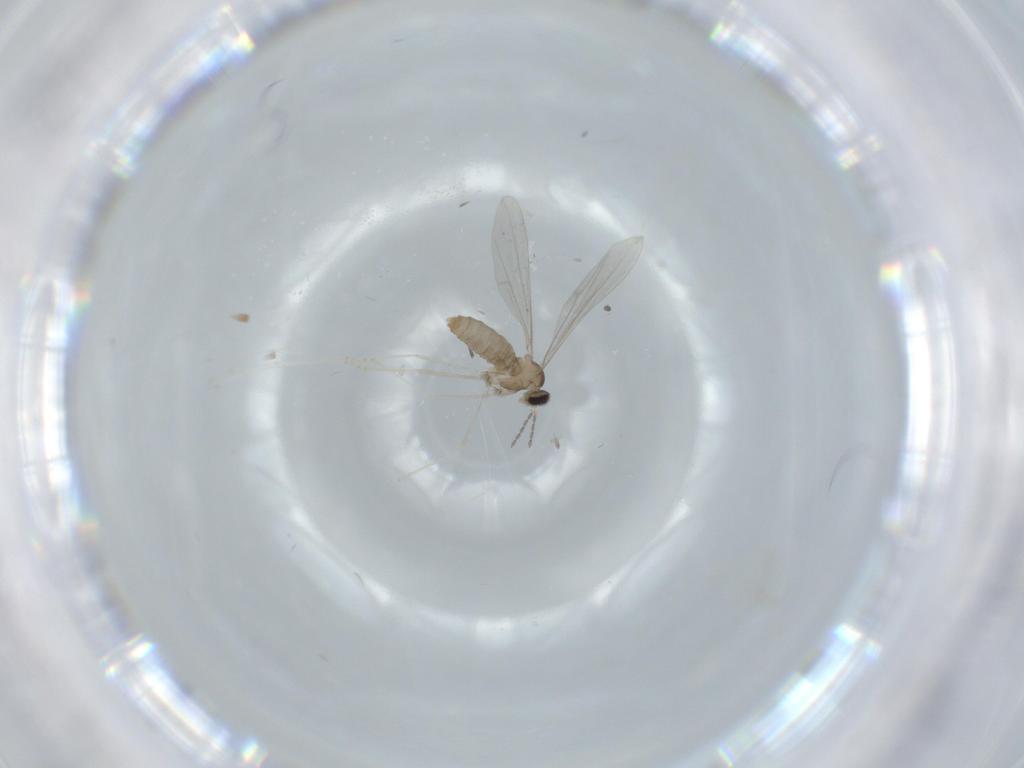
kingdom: Animalia
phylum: Arthropoda
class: Insecta
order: Diptera
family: Cecidomyiidae
